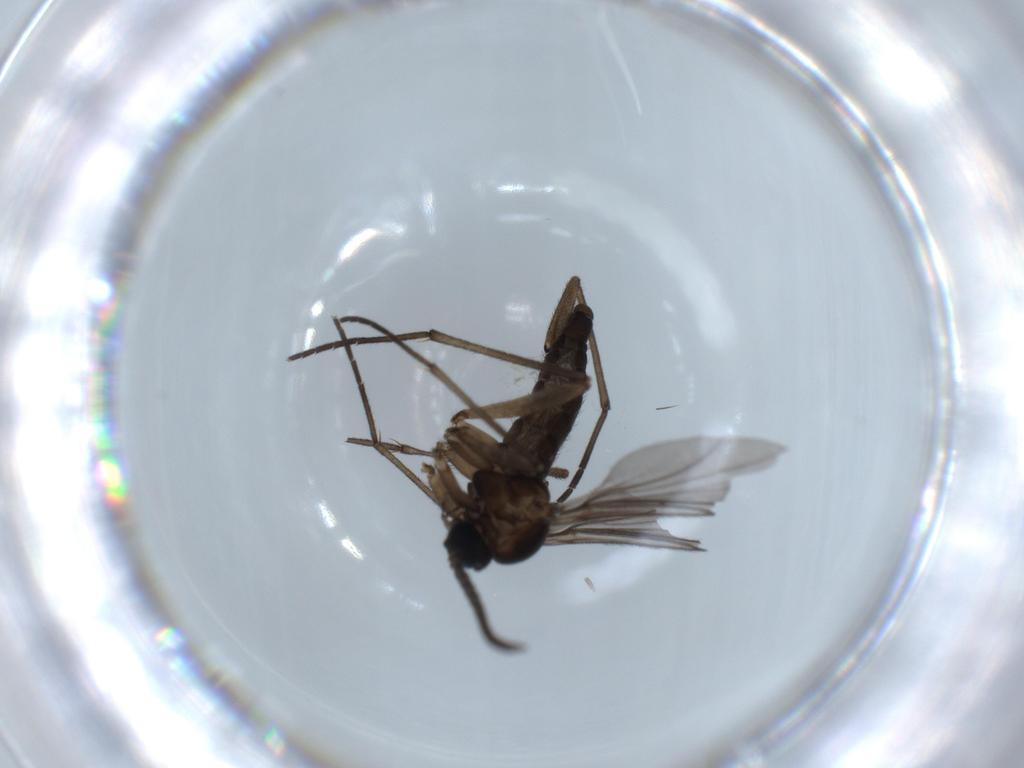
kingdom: Animalia
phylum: Arthropoda
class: Insecta
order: Diptera
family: Sciaridae
